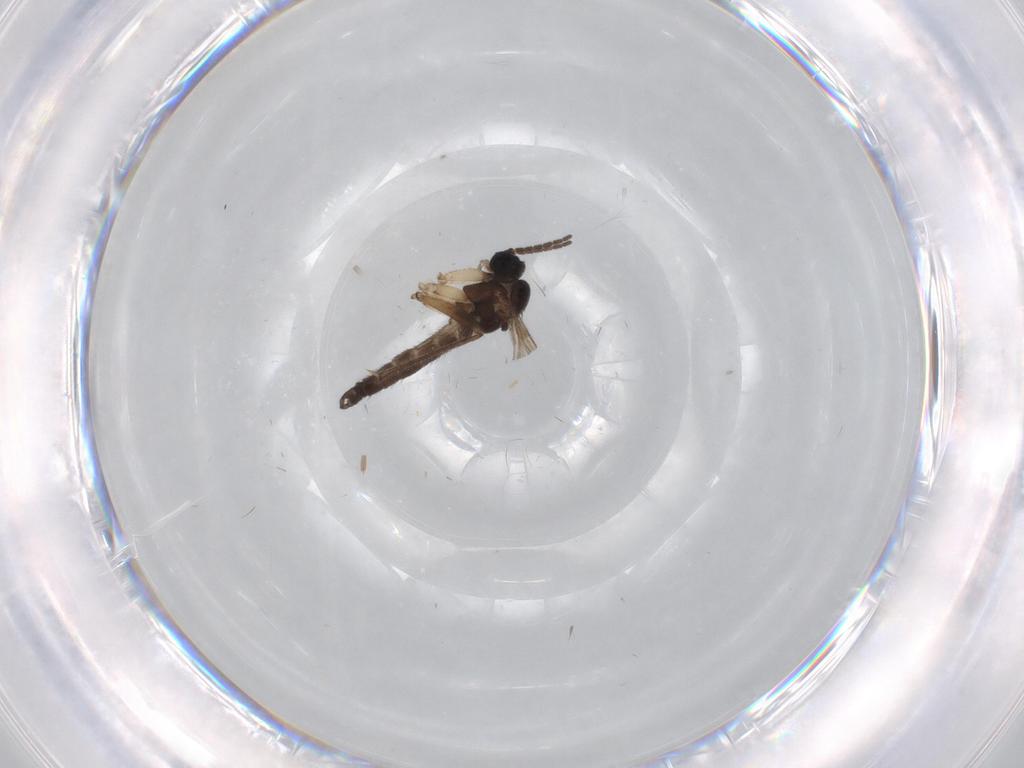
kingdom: Animalia
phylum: Arthropoda
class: Insecta
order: Diptera
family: Sciaridae
